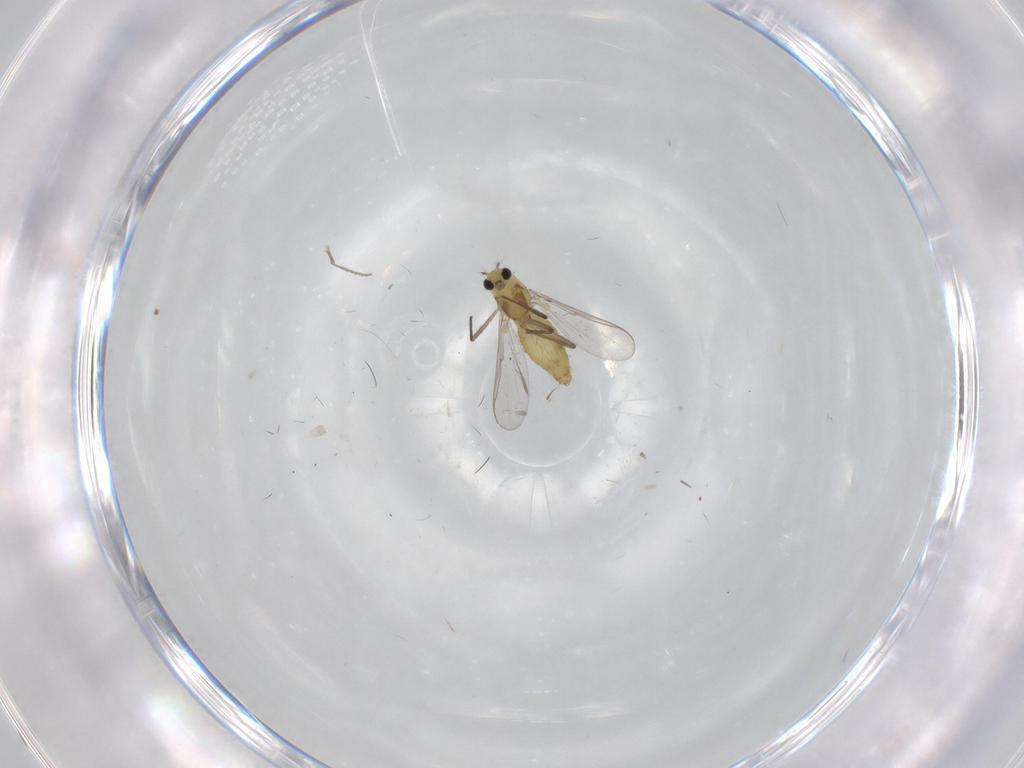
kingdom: Animalia
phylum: Arthropoda
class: Insecta
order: Diptera
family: Chironomidae
